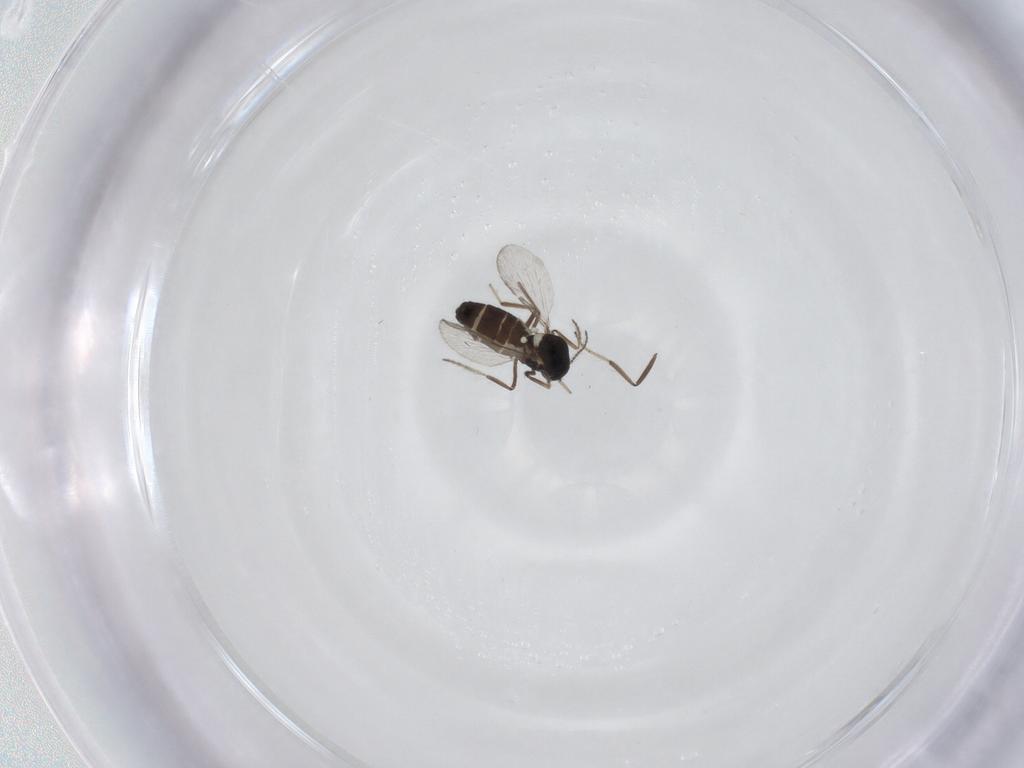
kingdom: Animalia
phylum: Arthropoda
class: Insecta
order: Diptera
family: Ceratopogonidae
